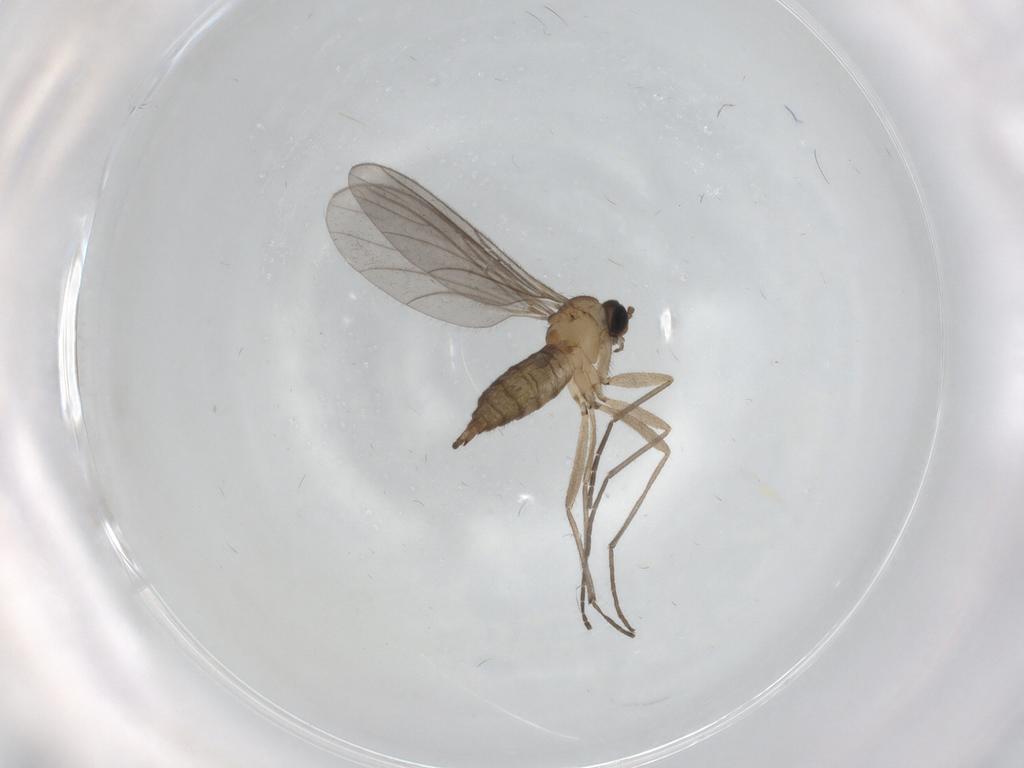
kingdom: Animalia
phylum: Arthropoda
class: Insecta
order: Diptera
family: Sciaridae
